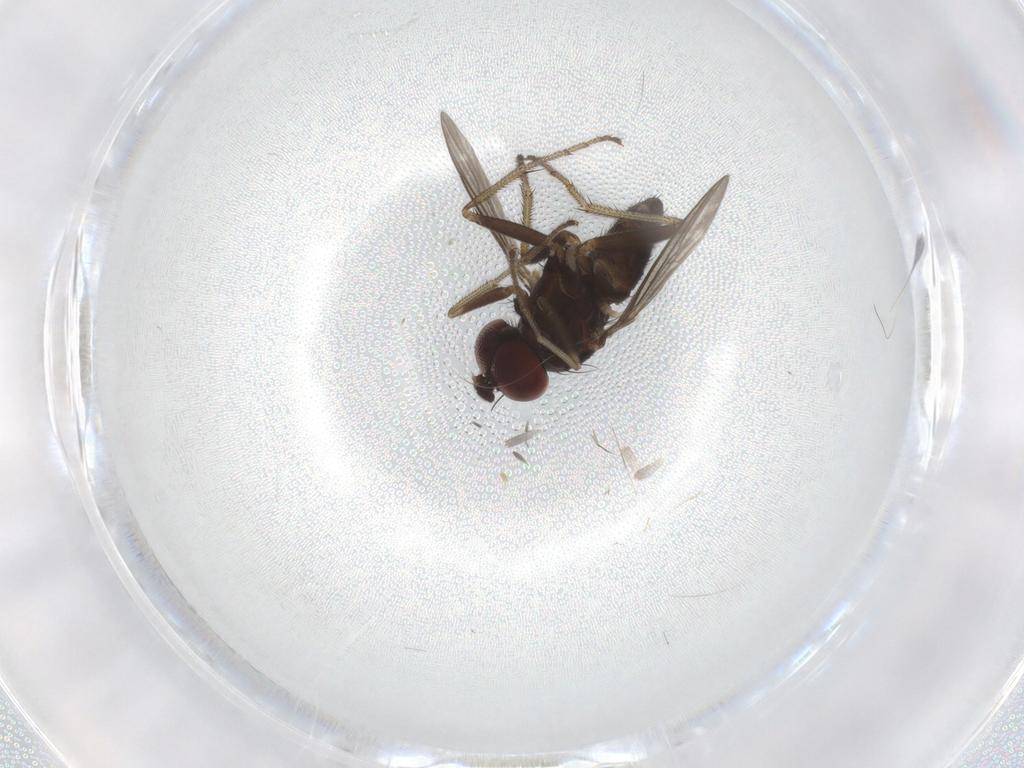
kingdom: Animalia
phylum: Arthropoda
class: Insecta
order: Diptera
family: Dolichopodidae
